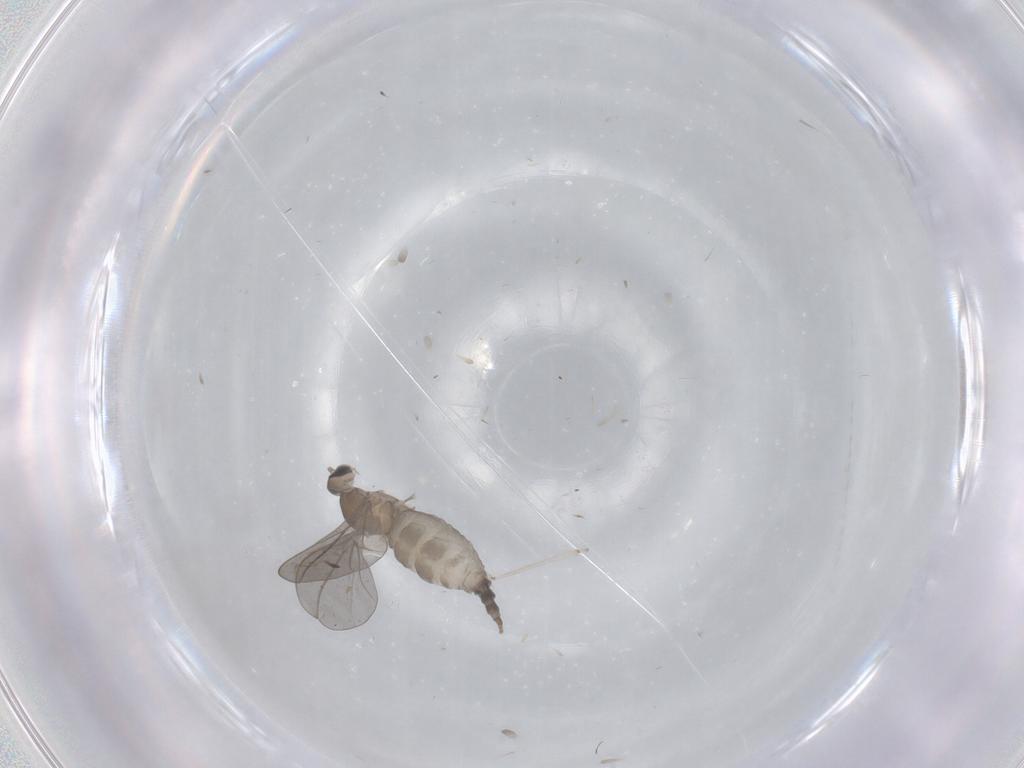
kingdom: Animalia
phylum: Arthropoda
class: Insecta
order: Diptera
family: Cecidomyiidae
